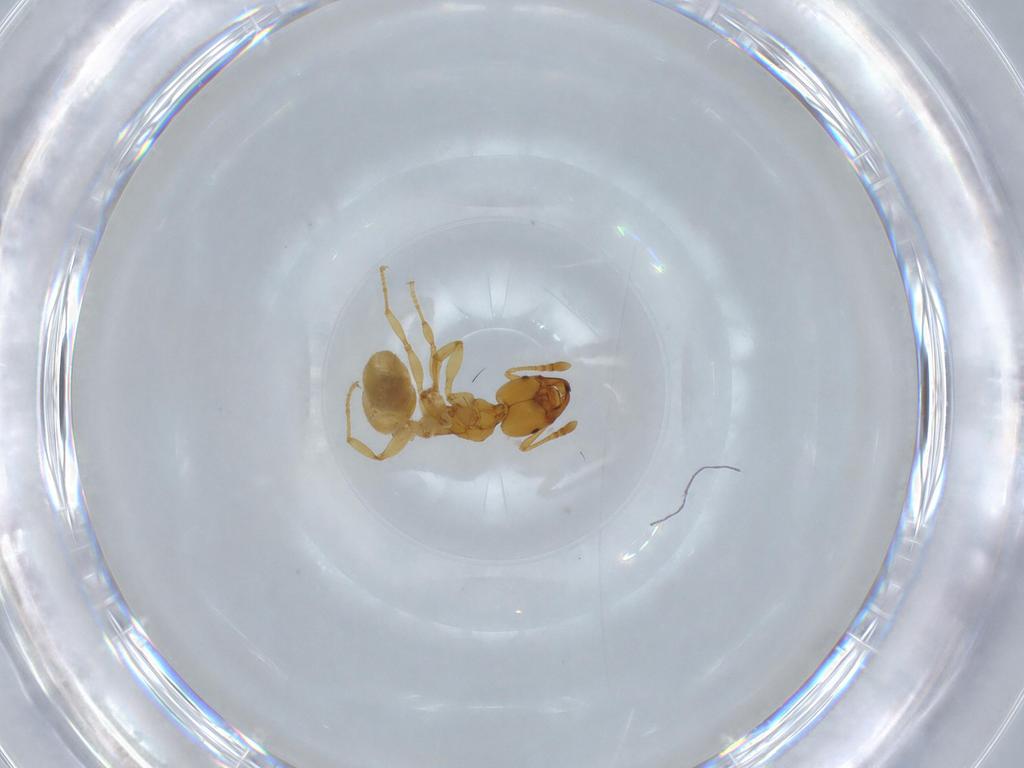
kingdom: Animalia
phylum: Arthropoda
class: Insecta
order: Hymenoptera
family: Formicidae
